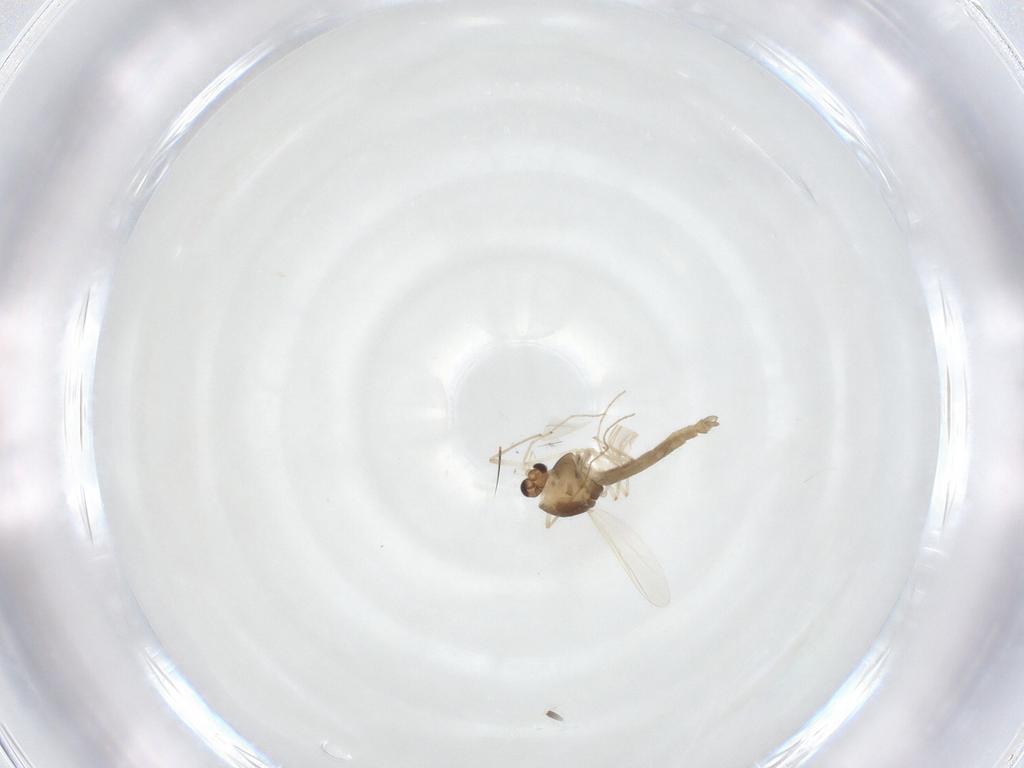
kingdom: Animalia
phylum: Arthropoda
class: Insecta
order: Diptera
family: Chironomidae
